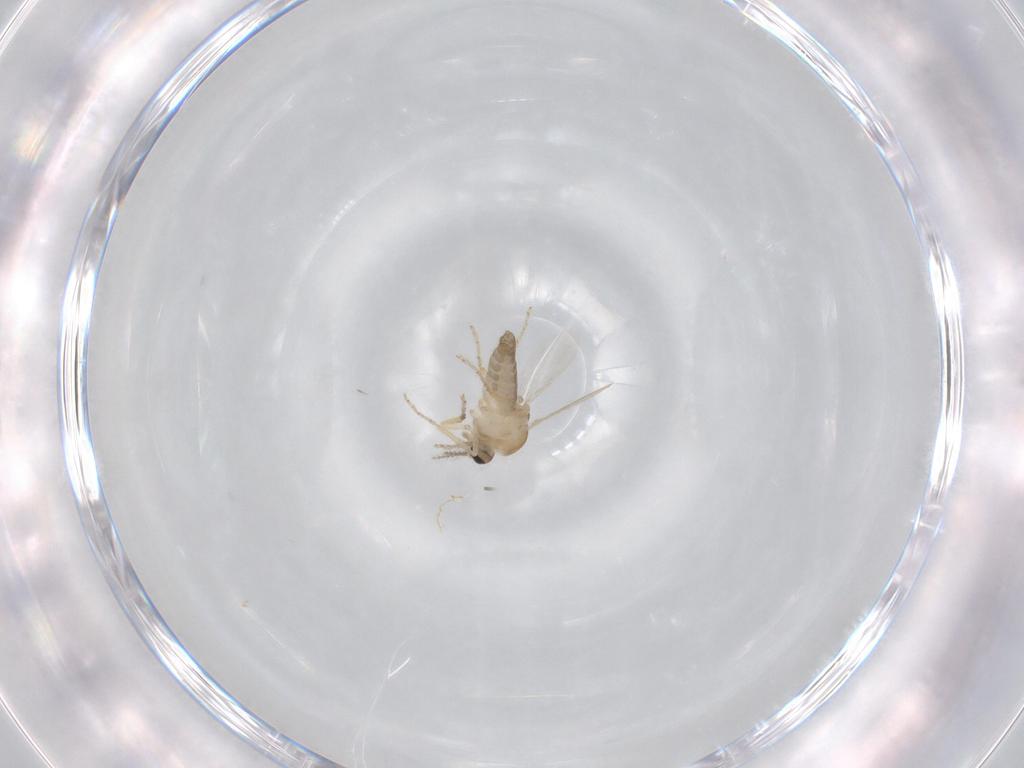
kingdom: Animalia
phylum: Arthropoda
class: Insecta
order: Diptera
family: Ceratopogonidae
